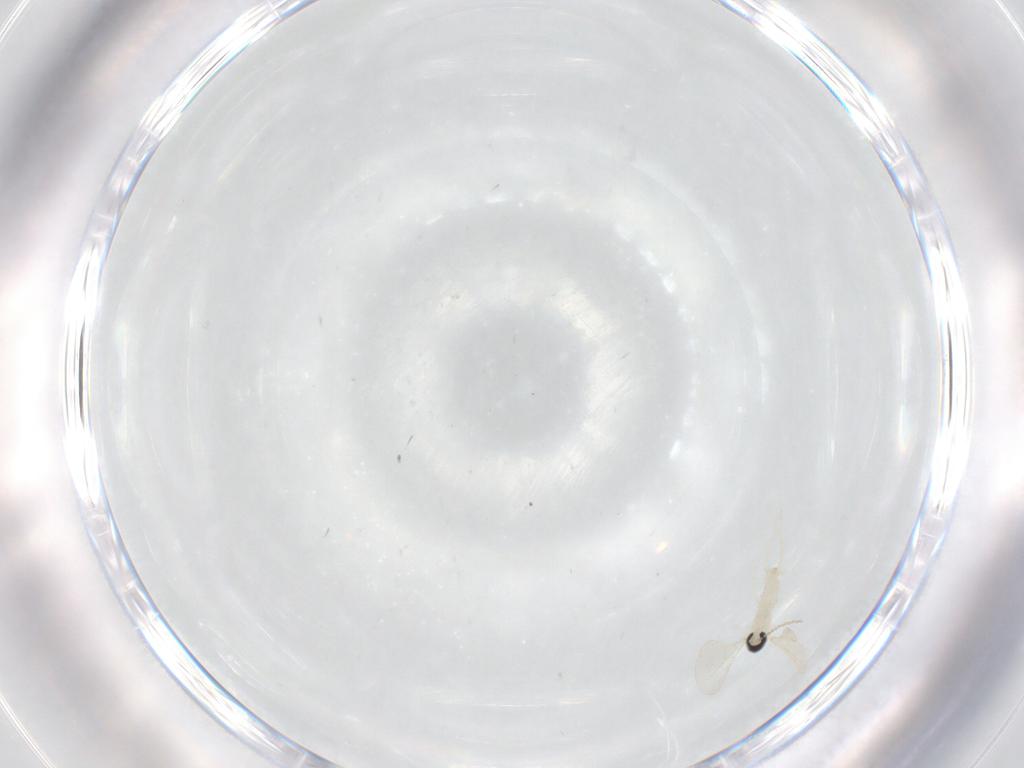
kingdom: Animalia
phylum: Arthropoda
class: Insecta
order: Diptera
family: Cecidomyiidae
